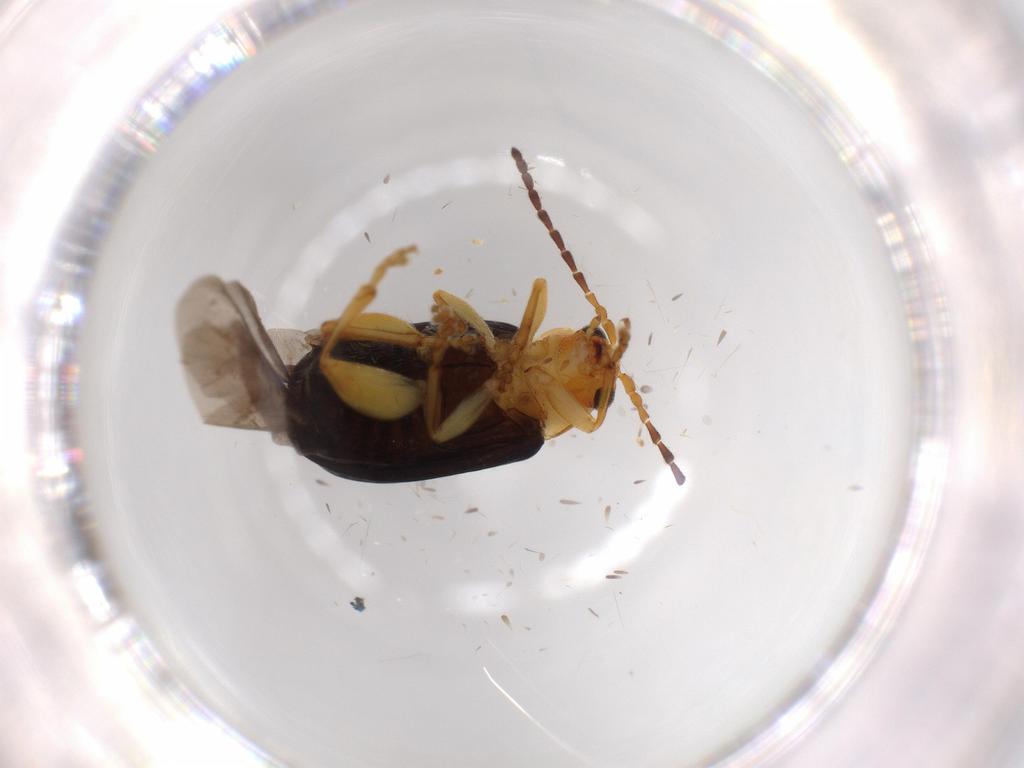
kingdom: Animalia
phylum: Arthropoda
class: Insecta
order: Coleoptera
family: Chrysomelidae
